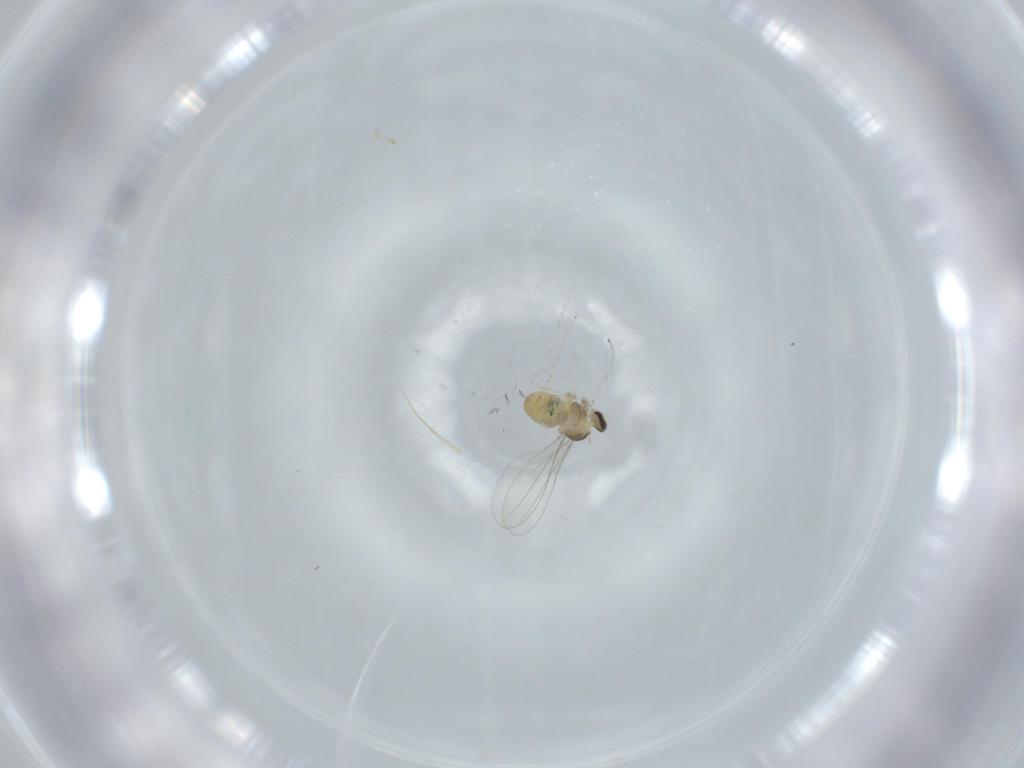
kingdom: Animalia
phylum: Arthropoda
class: Insecta
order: Diptera
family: Cecidomyiidae
